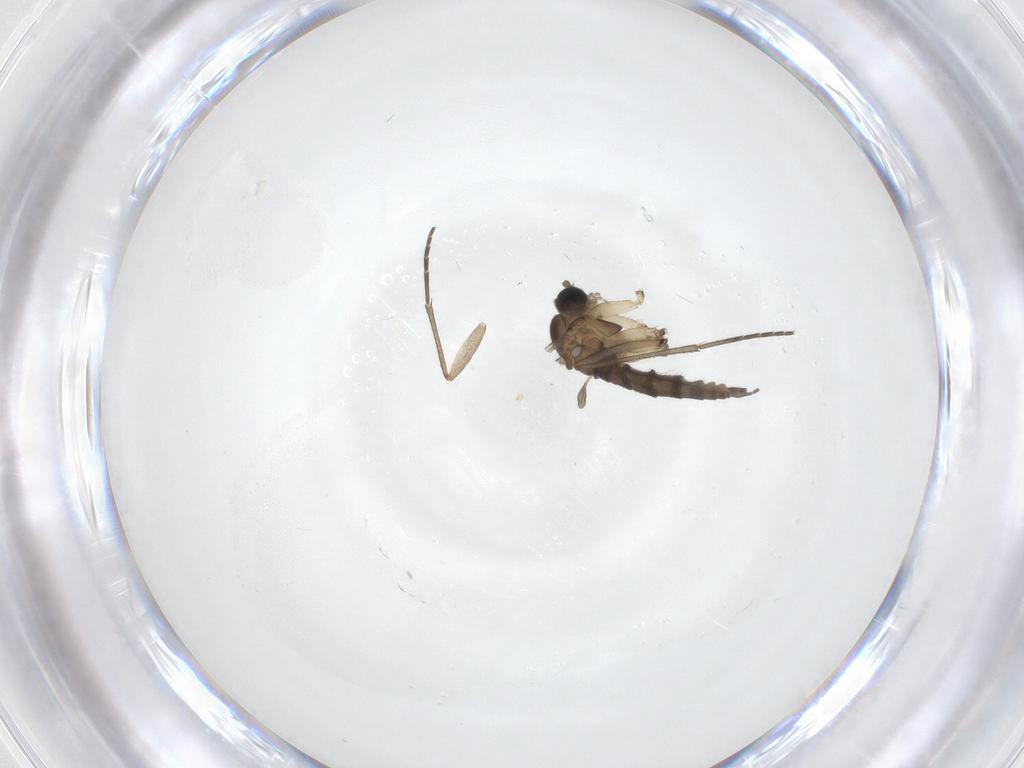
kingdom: Animalia
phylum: Arthropoda
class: Insecta
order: Diptera
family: Sciaridae
